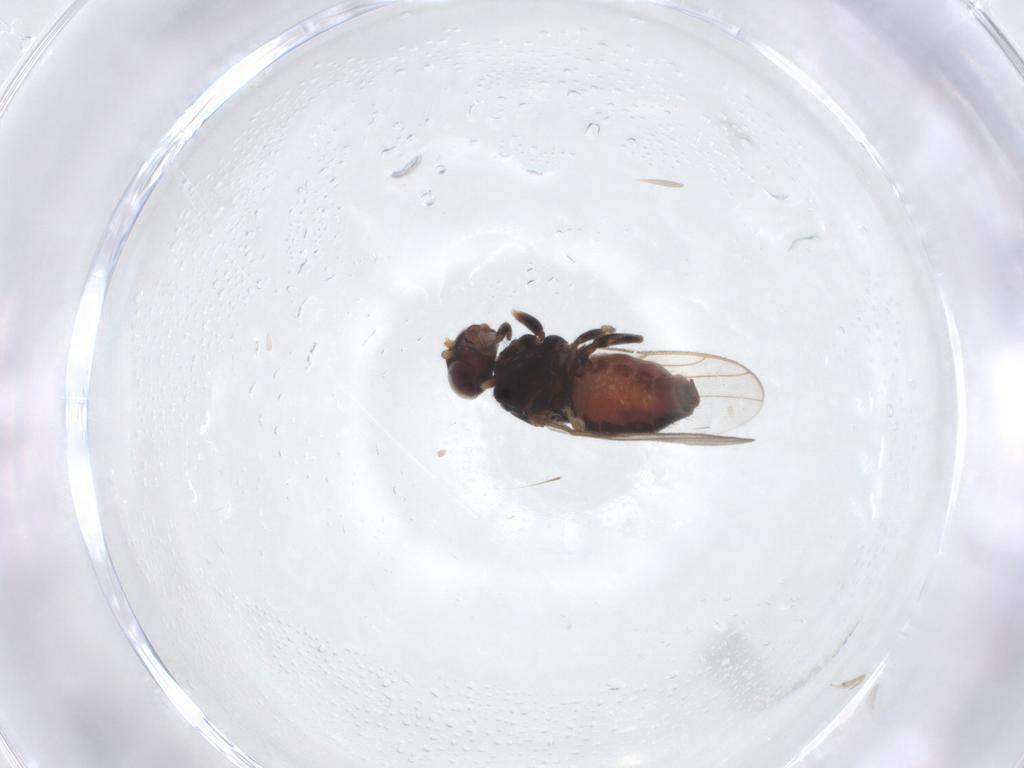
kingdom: Animalia
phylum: Arthropoda
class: Insecta
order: Diptera
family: Chloropidae
